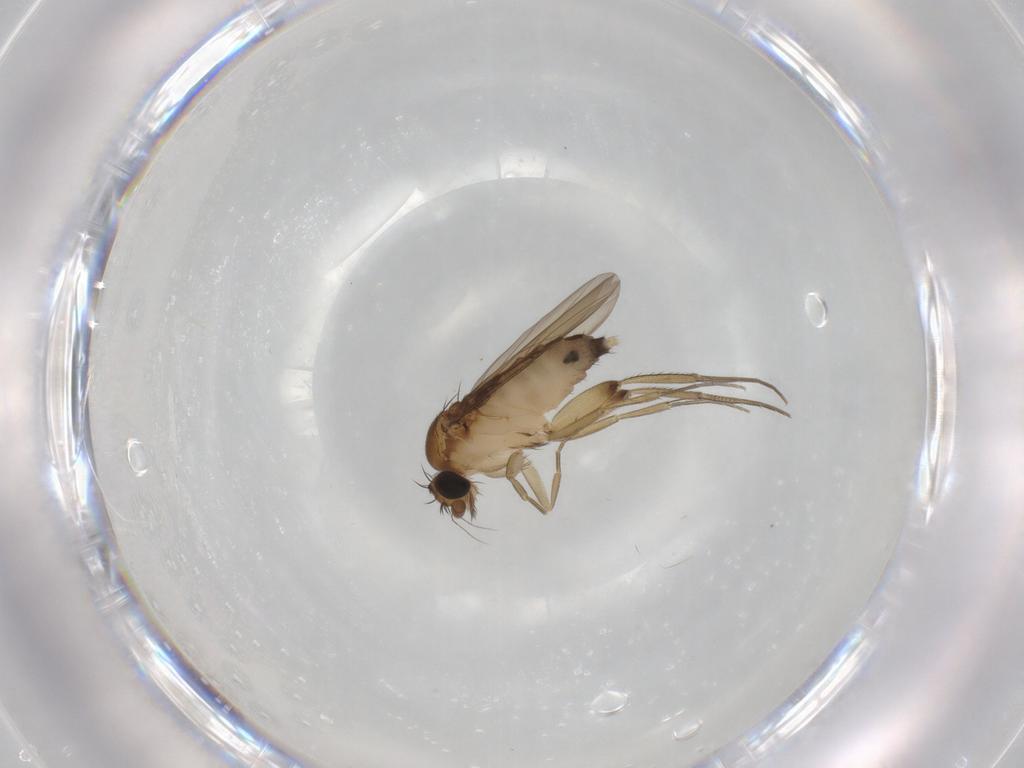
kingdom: Animalia
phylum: Arthropoda
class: Insecta
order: Diptera
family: Phoridae
